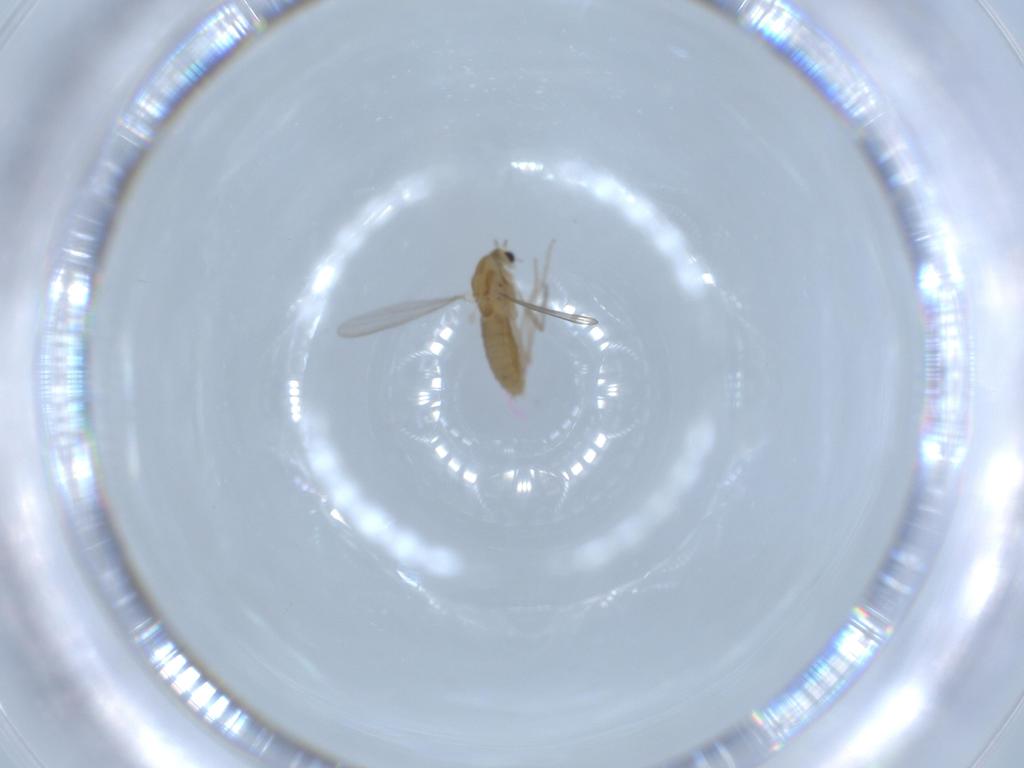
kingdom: Animalia
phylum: Arthropoda
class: Insecta
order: Diptera
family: Chironomidae
